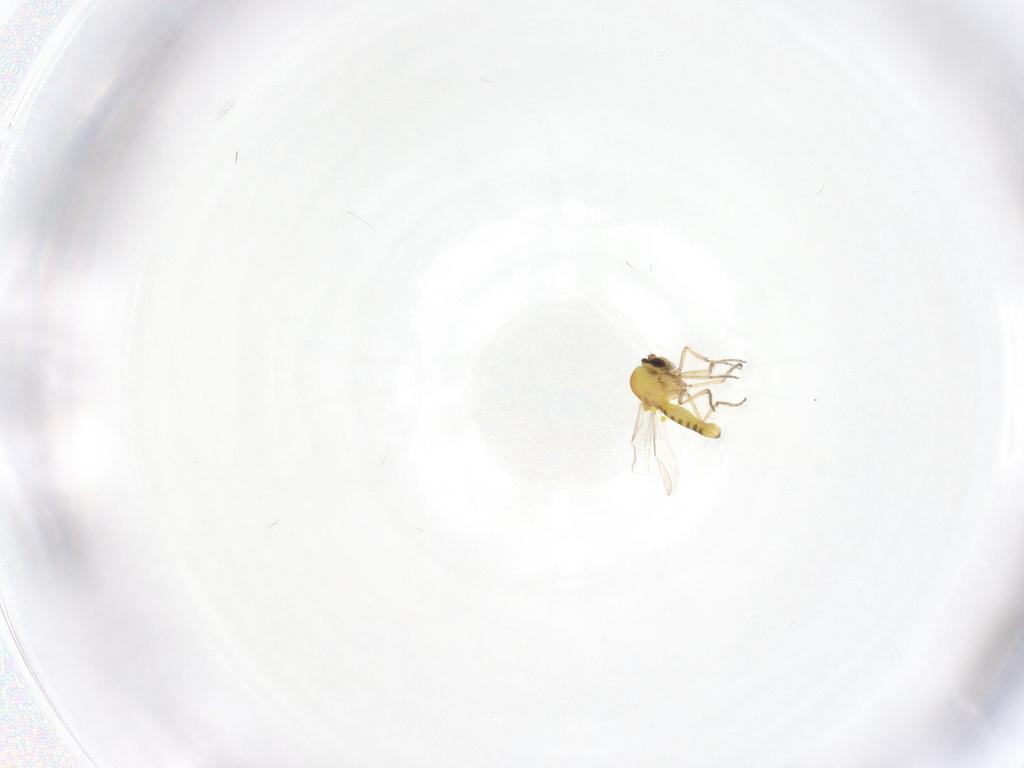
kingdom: Animalia
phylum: Arthropoda
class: Insecta
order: Diptera
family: Ceratopogonidae
